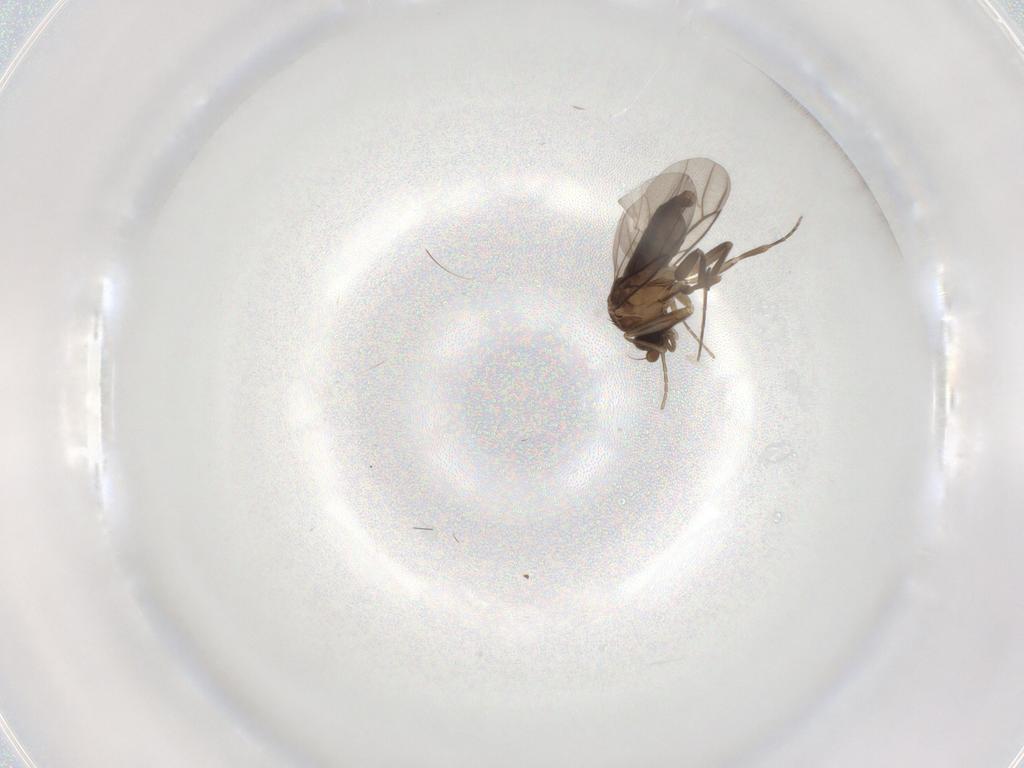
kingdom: Animalia
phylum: Arthropoda
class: Insecta
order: Diptera
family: Phoridae
